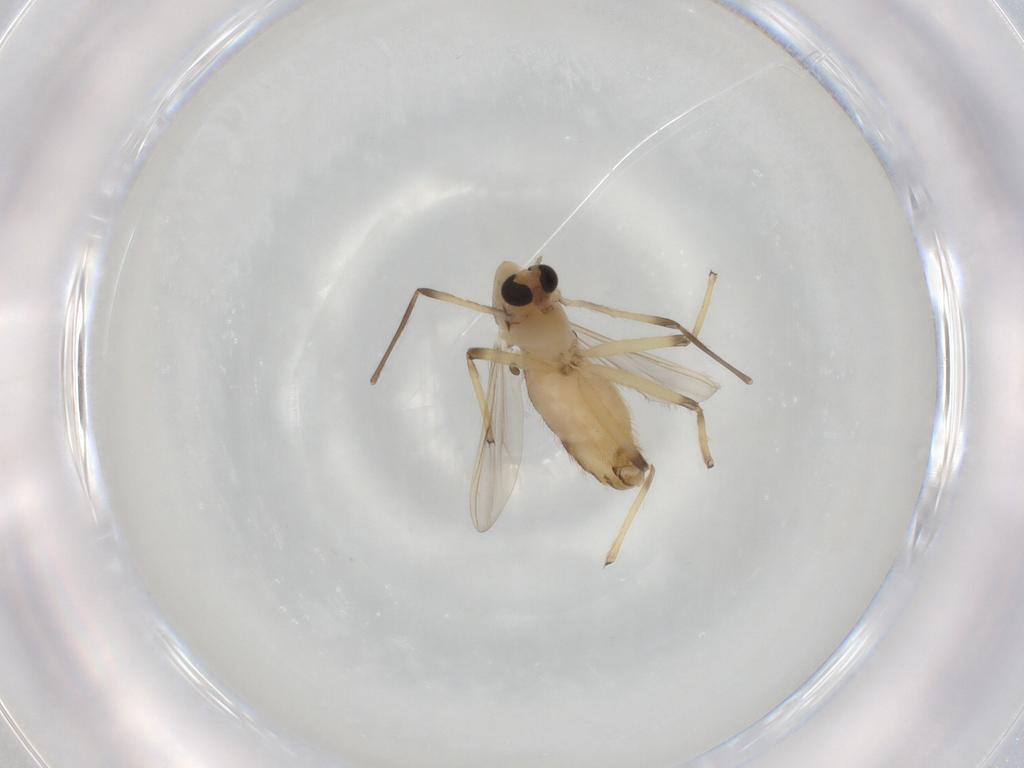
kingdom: Animalia
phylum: Arthropoda
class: Insecta
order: Diptera
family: Chironomidae
